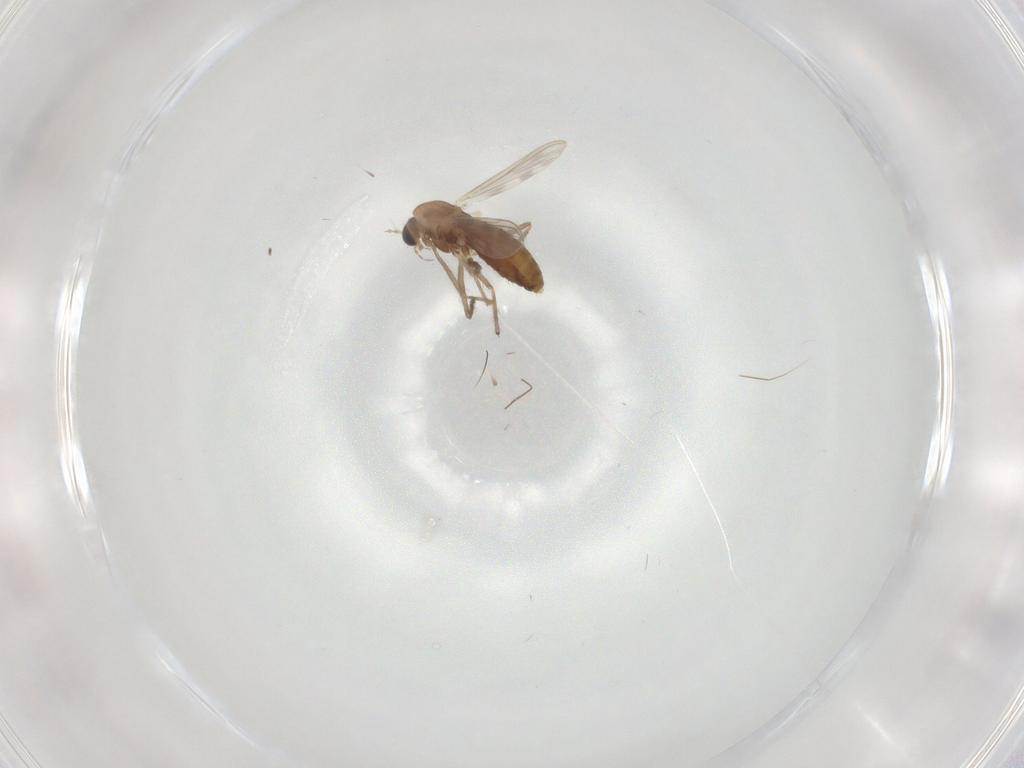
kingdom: Animalia
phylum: Arthropoda
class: Insecta
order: Diptera
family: Chironomidae
